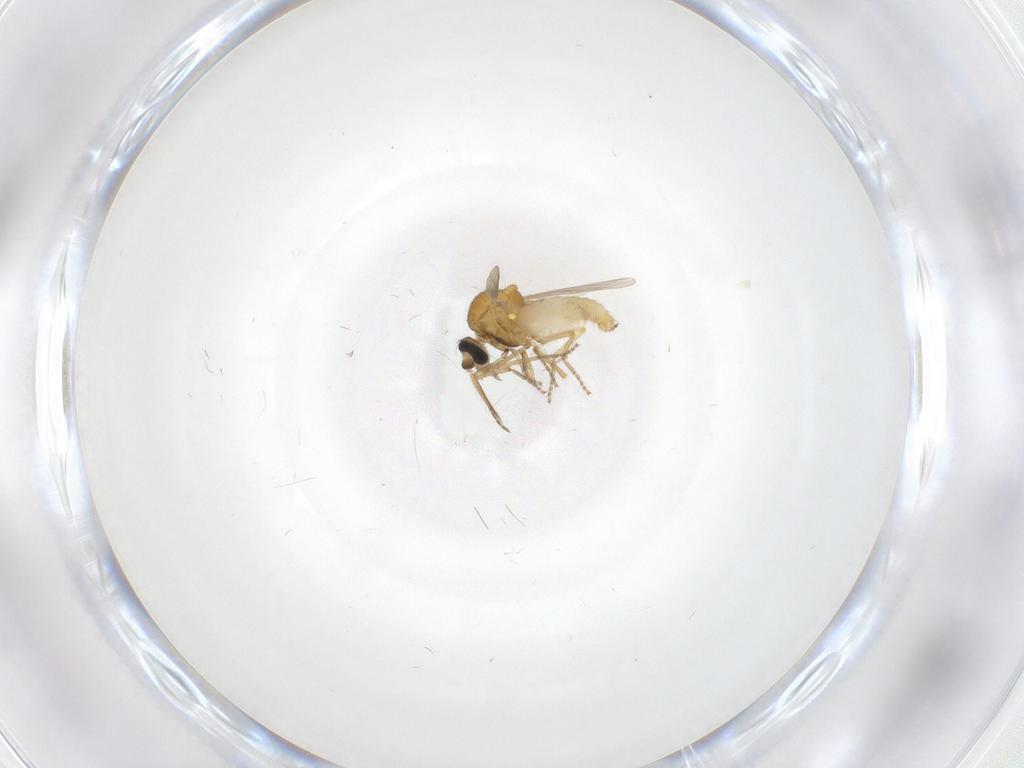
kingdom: Animalia
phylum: Arthropoda
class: Insecta
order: Diptera
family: Ceratopogonidae
